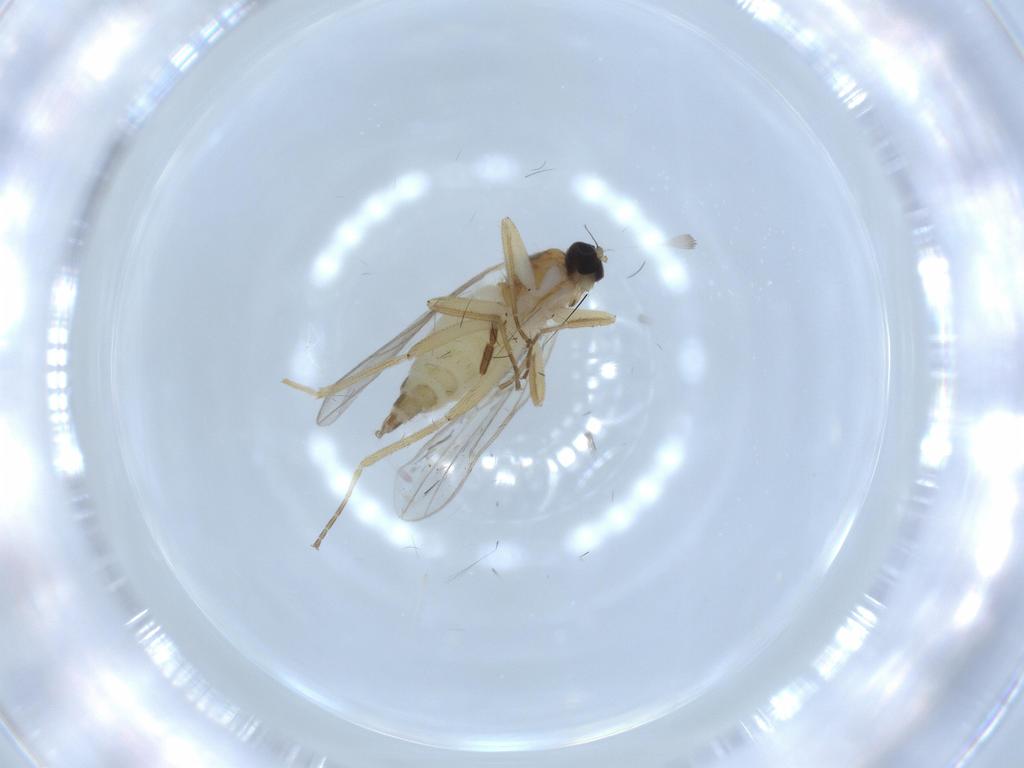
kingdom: Animalia
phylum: Arthropoda
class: Insecta
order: Diptera
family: Hybotidae
